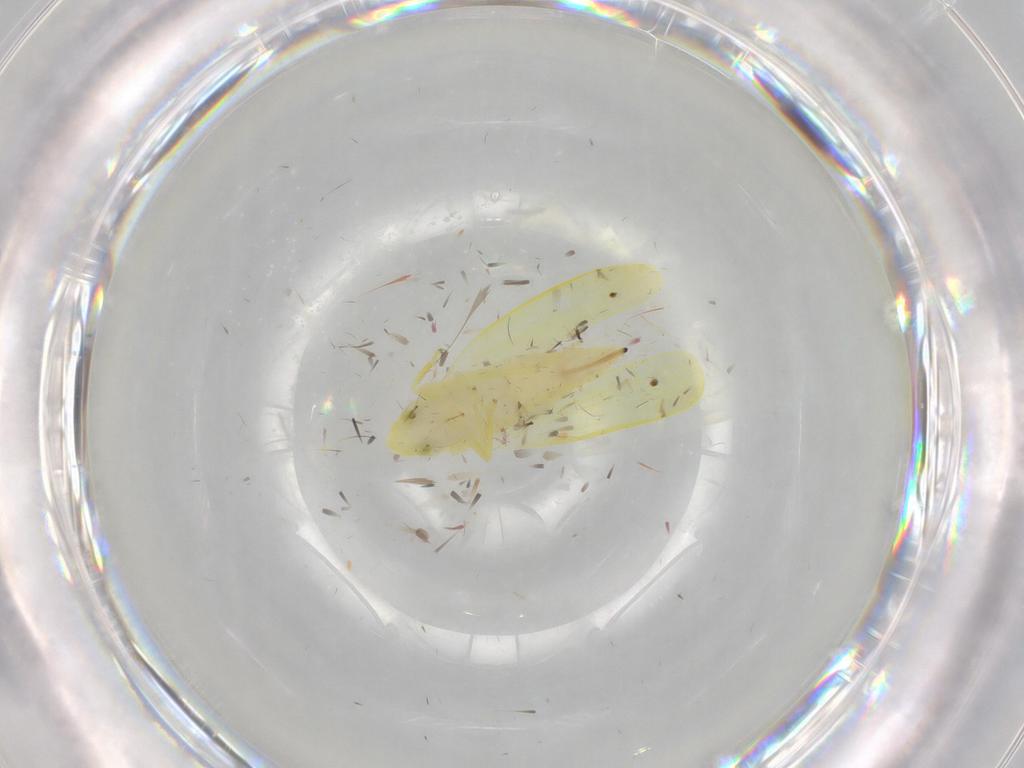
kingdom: Animalia
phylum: Arthropoda
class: Insecta
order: Hemiptera
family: Cicadellidae
